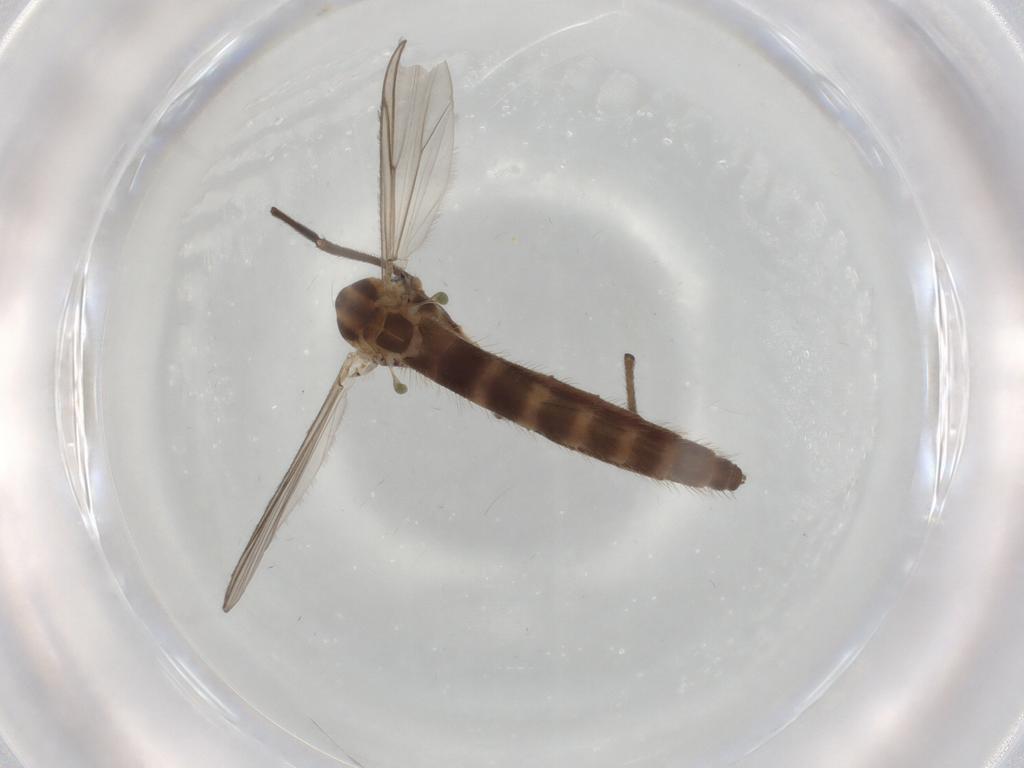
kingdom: Animalia
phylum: Arthropoda
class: Insecta
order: Diptera
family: Chironomidae
